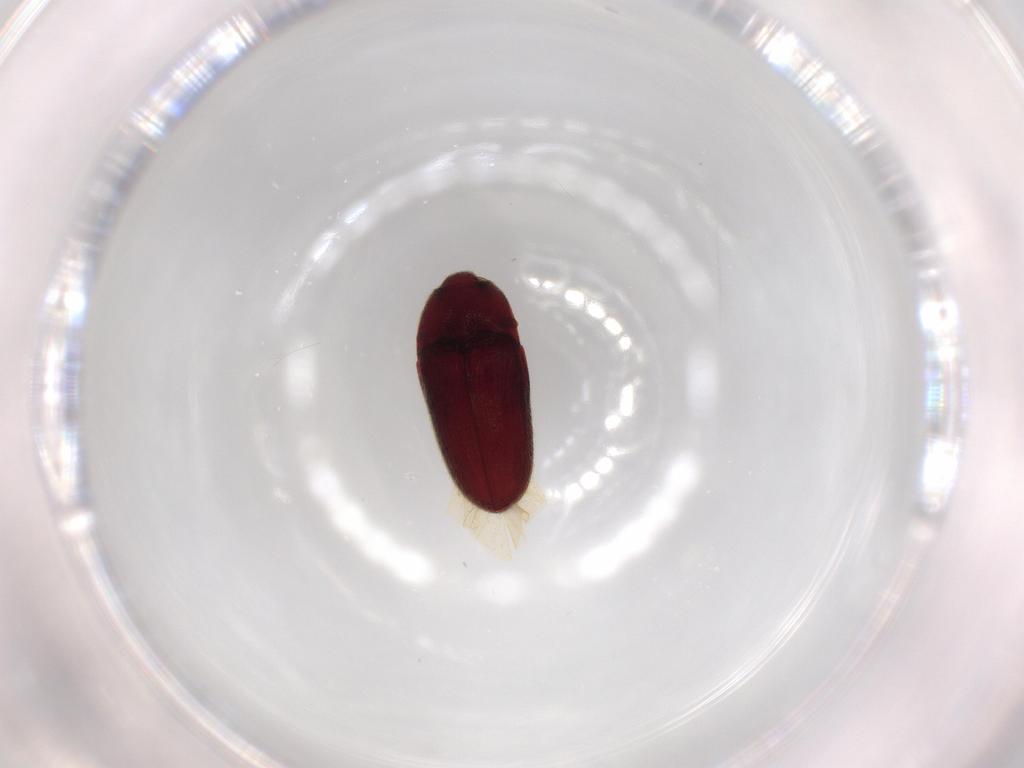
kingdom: Animalia
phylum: Arthropoda
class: Insecta
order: Coleoptera
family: Throscidae
